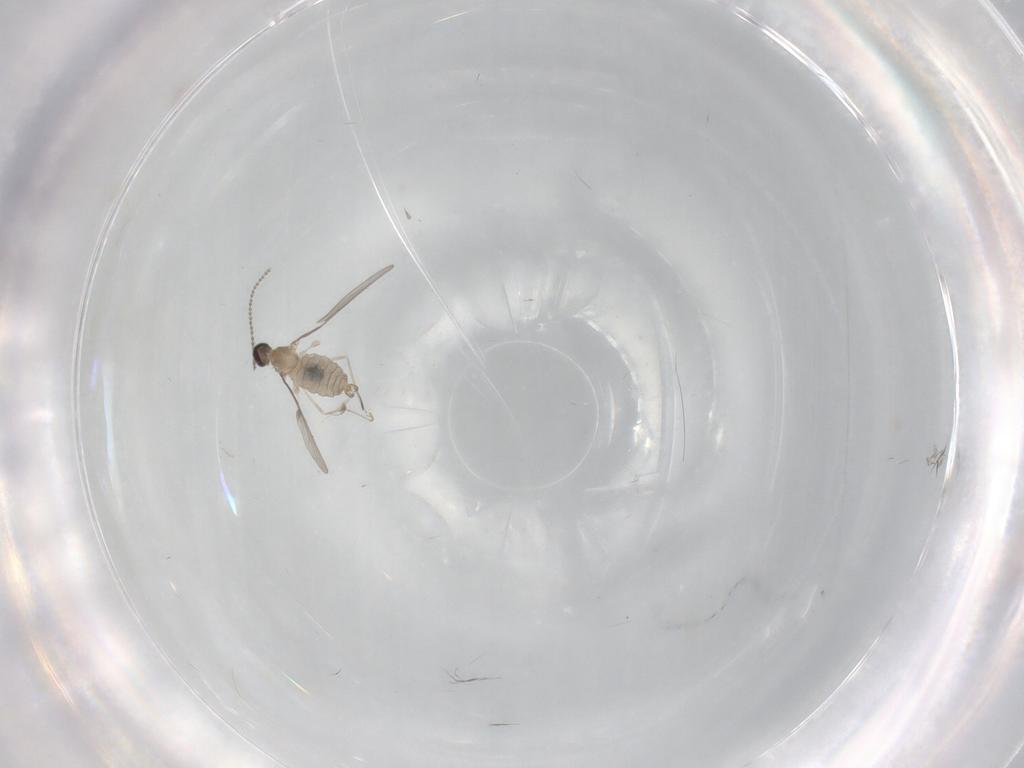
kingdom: Animalia
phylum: Arthropoda
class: Insecta
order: Diptera
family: Cecidomyiidae
